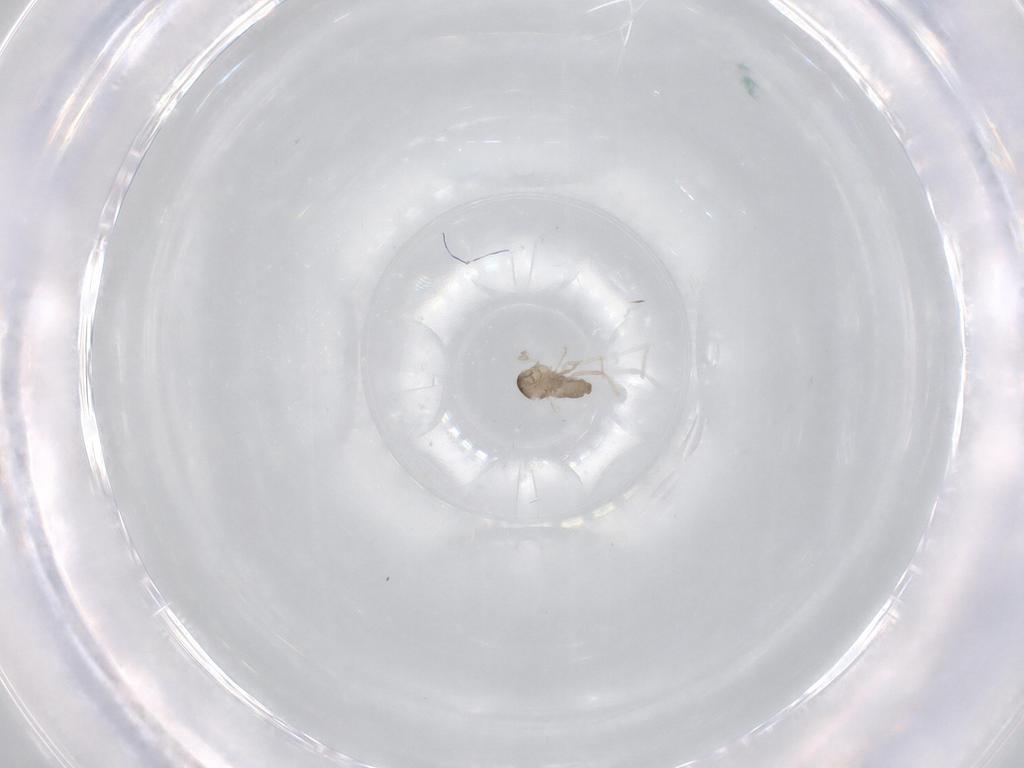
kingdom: Animalia
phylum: Arthropoda
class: Insecta
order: Diptera
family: Cecidomyiidae
